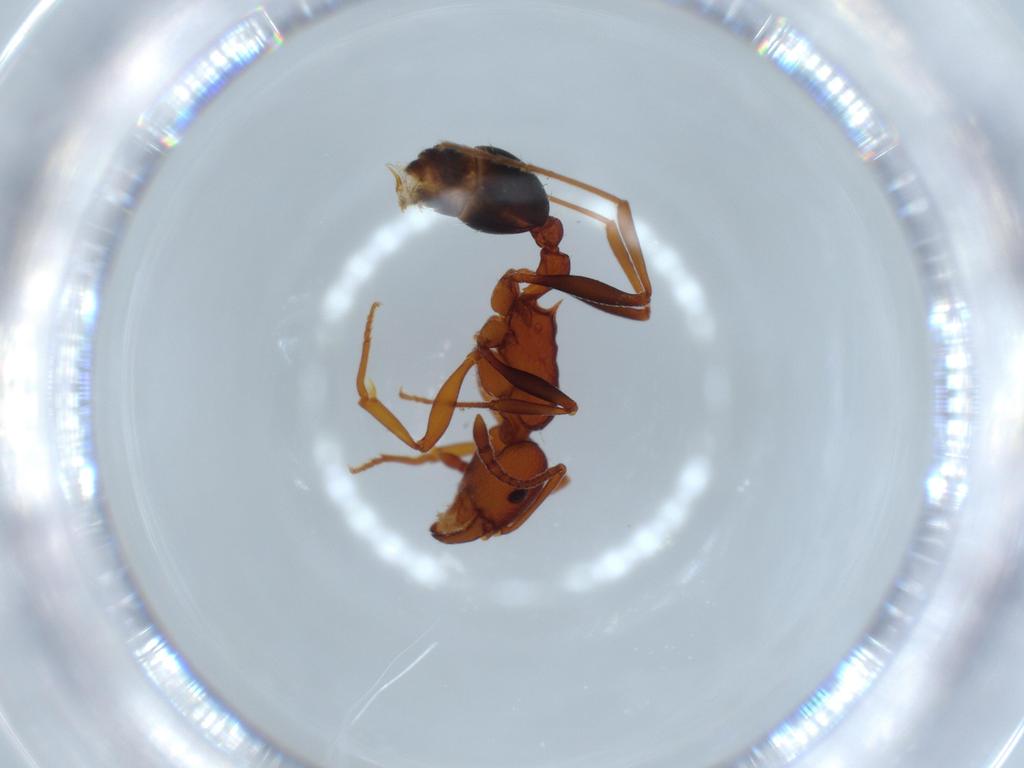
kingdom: Animalia
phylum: Arthropoda
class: Insecta
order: Hymenoptera
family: Formicidae
